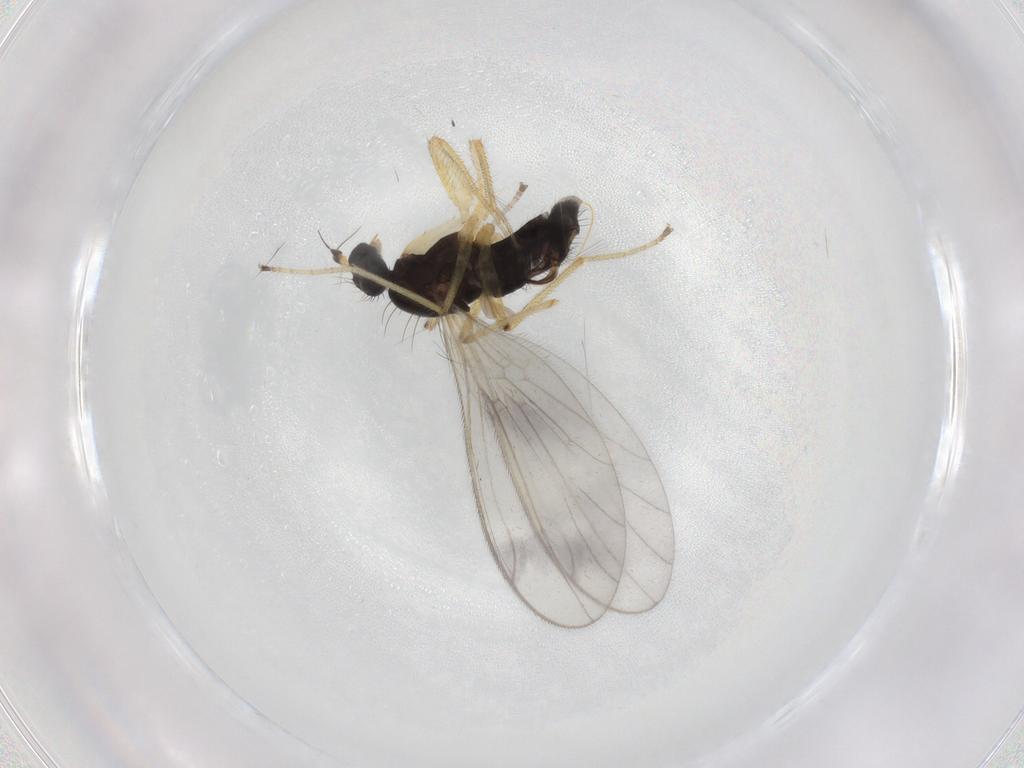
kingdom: Animalia
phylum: Arthropoda
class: Insecta
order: Diptera
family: Empididae
